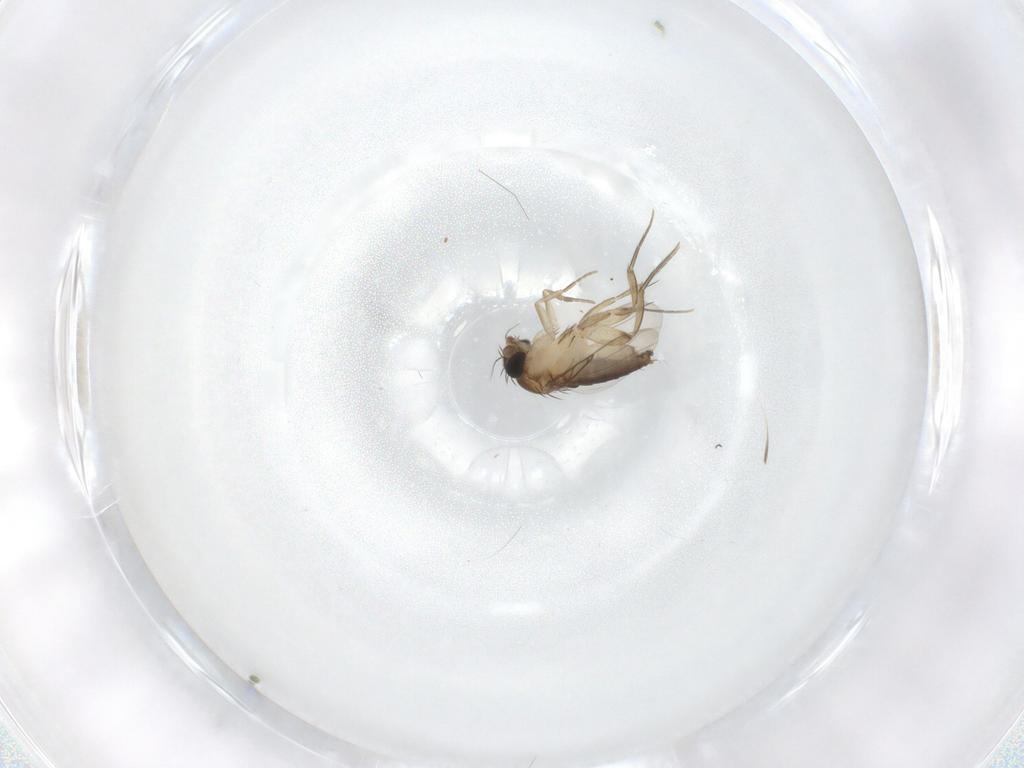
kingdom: Animalia
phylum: Arthropoda
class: Insecta
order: Diptera
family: Phoridae
